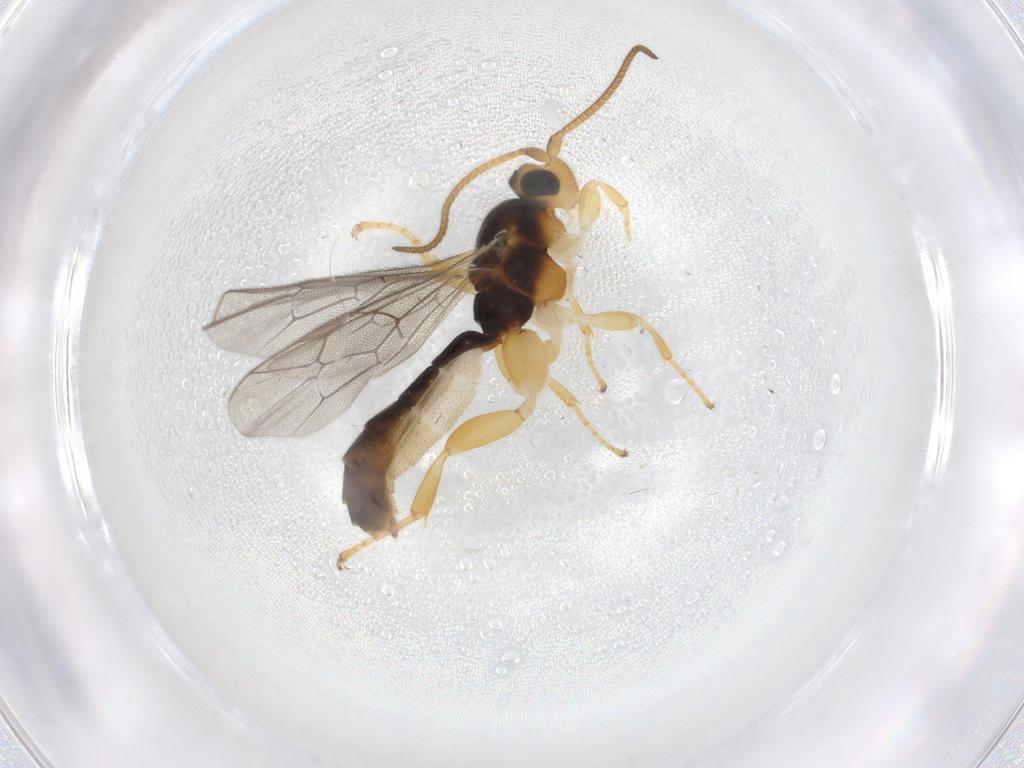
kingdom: Animalia
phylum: Arthropoda
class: Insecta
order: Hymenoptera
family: Ichneumonidae
